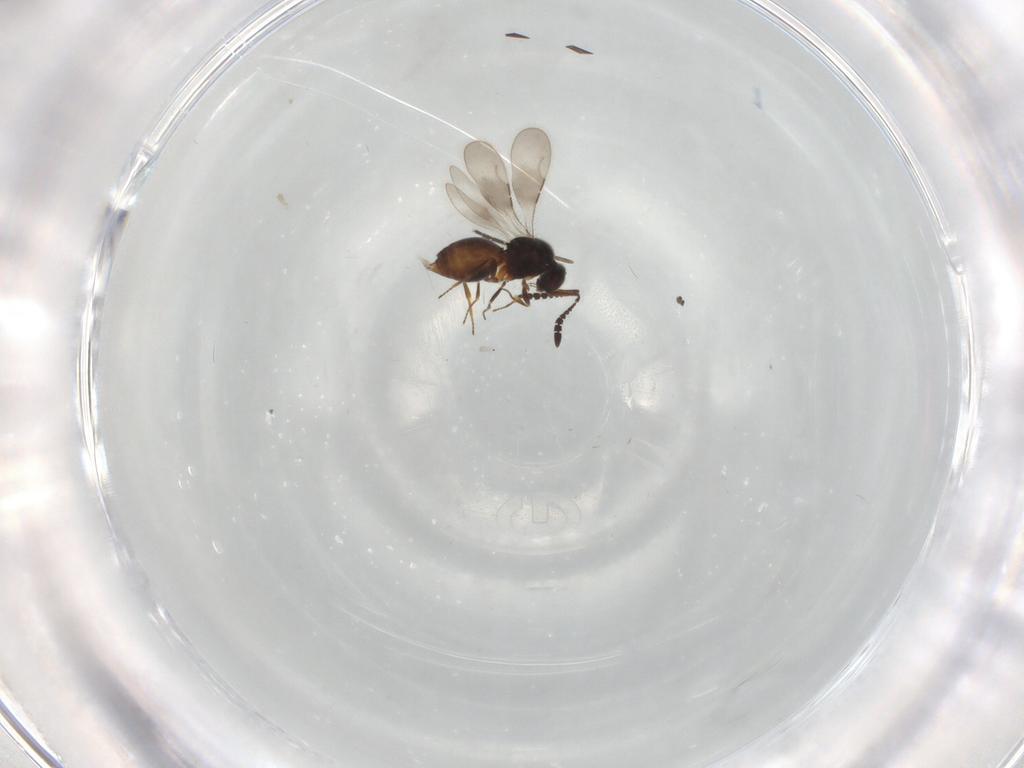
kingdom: Animalia
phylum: Arthropoda
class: Insecta
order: Hymenoptera
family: Ceraphronidae
